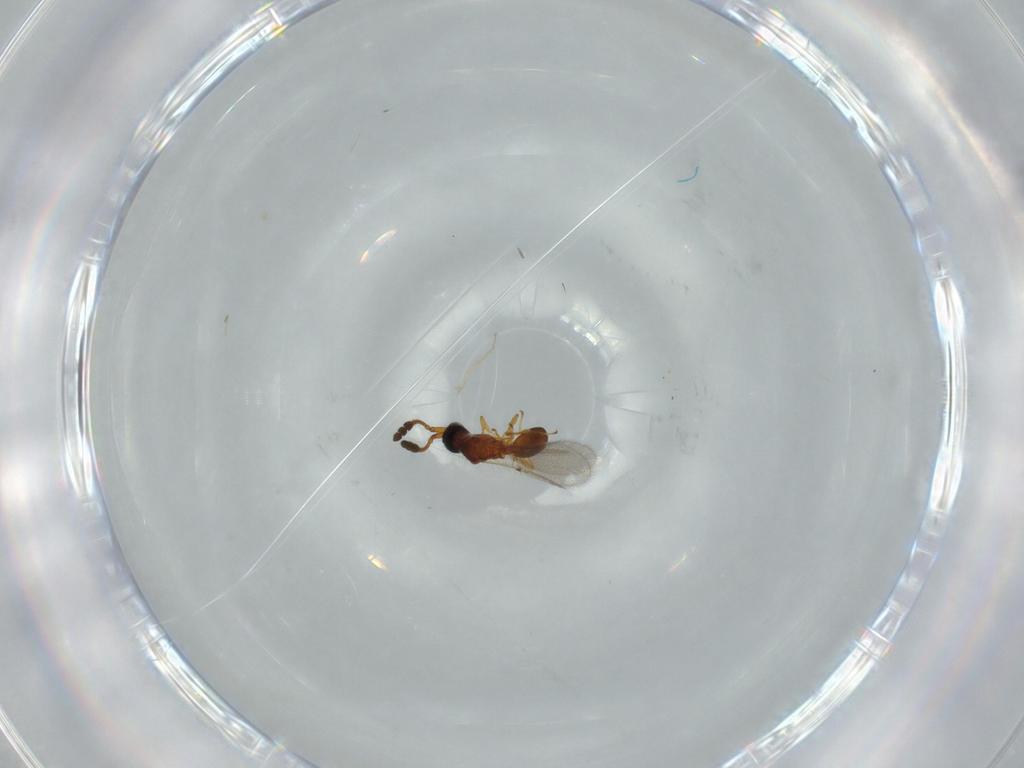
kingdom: Animalia
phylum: Arthropoda
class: Insecta
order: Hymenoptera
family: Diapriidae
